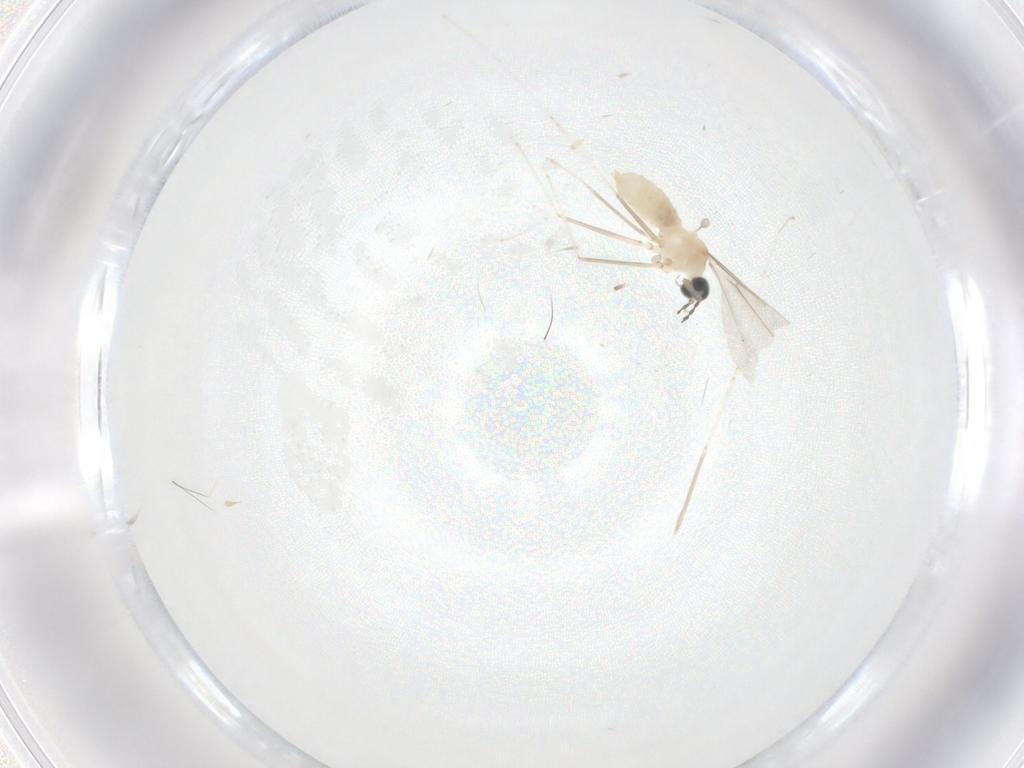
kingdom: Animalia
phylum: Arthropoda
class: Insecta
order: Diptera
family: Cecidomyiidae
